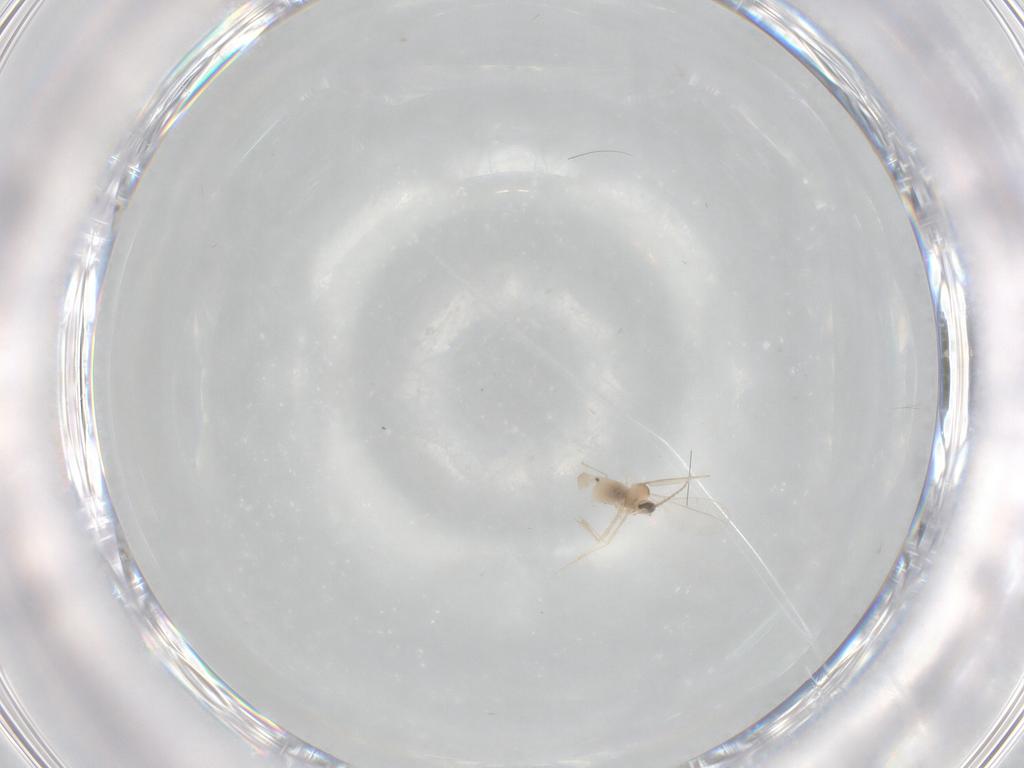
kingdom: Animalia
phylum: Arthropoda
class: Insecta
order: Diptera
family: Cecidomyiidae
